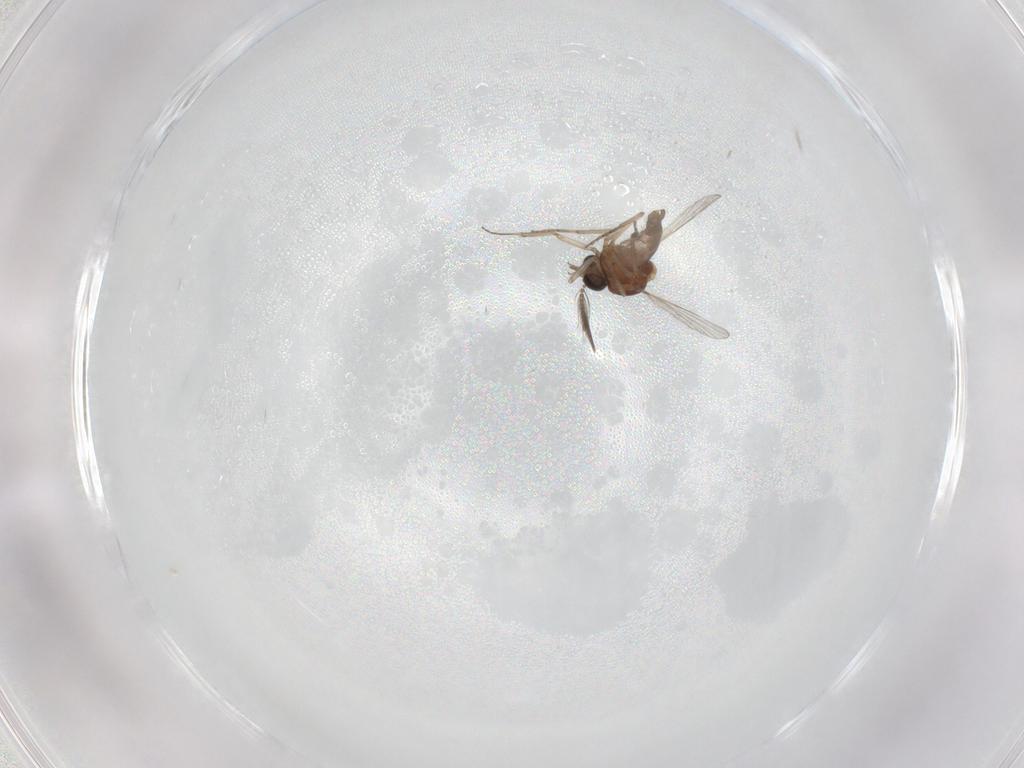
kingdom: Animalia
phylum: Arthropoda
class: Insecta
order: Diptera
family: Ceratopogonidae
